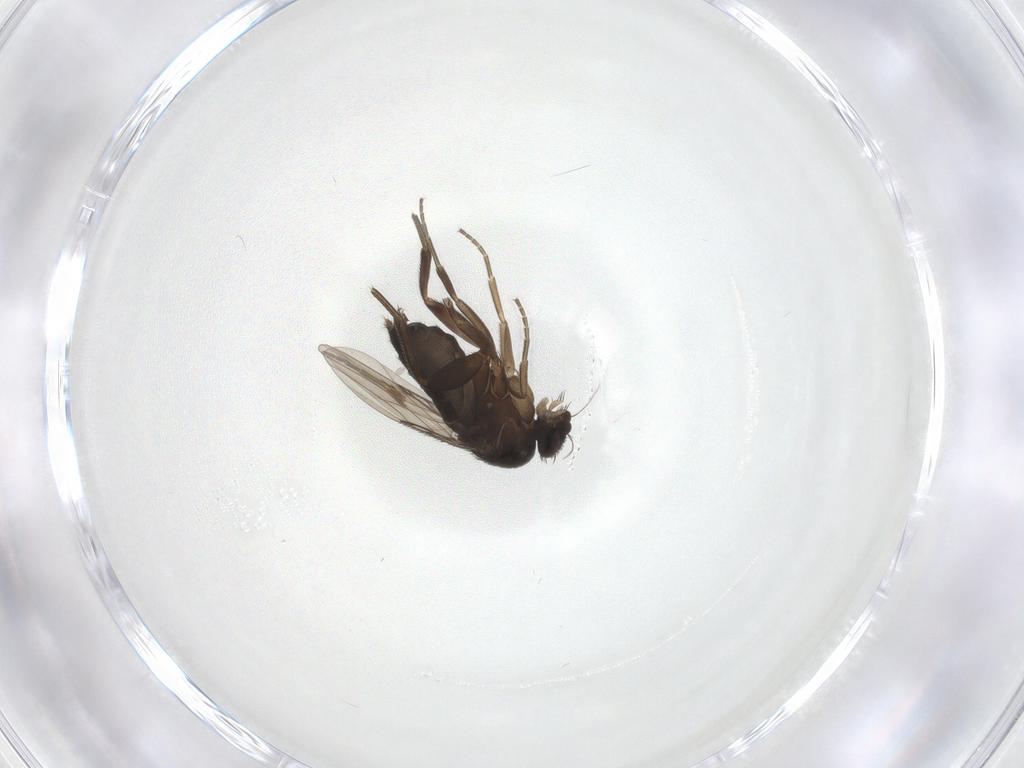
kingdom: Animalia
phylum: Arthropoda
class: Insecta
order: Diptera
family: Phoridae
